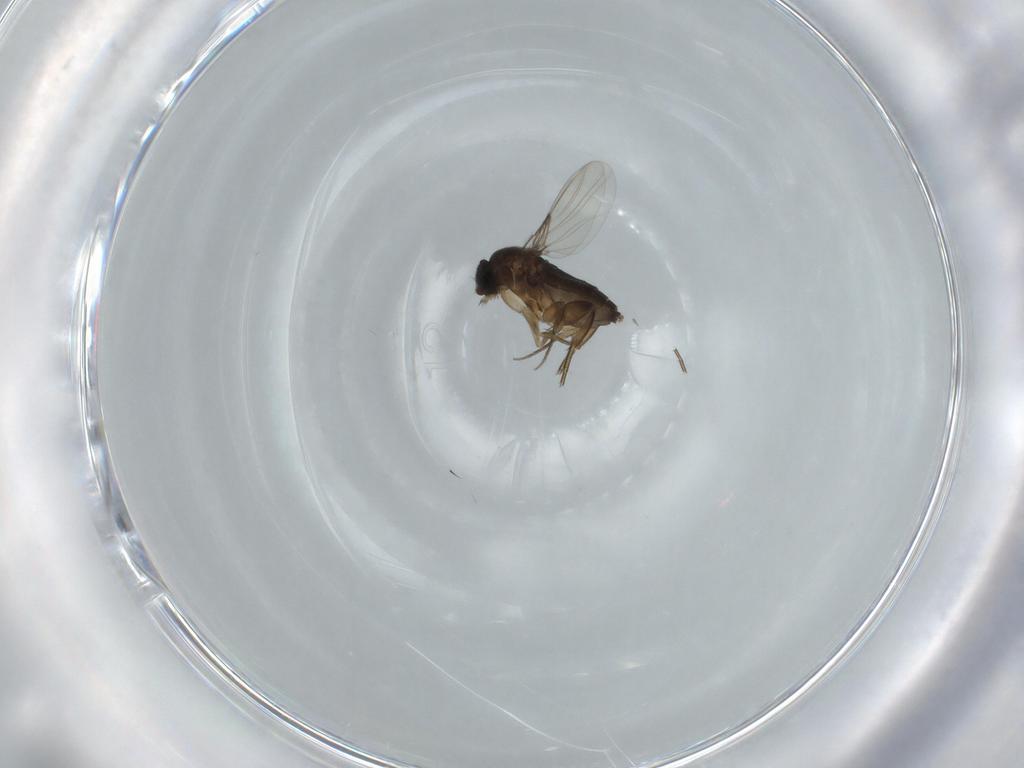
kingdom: Animalia
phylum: Arthropoda
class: Insecta
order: Diptera
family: Phoridae
